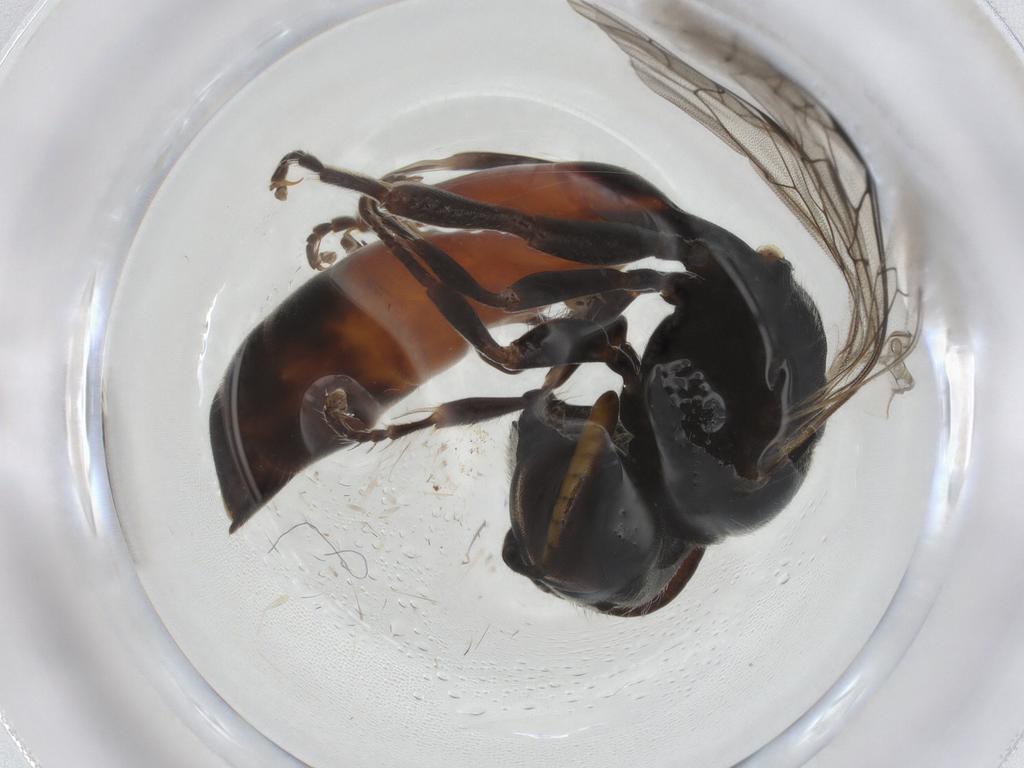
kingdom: Animalia
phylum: Arthropoda
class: Insecta
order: Hymenoptera
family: Psenidae
